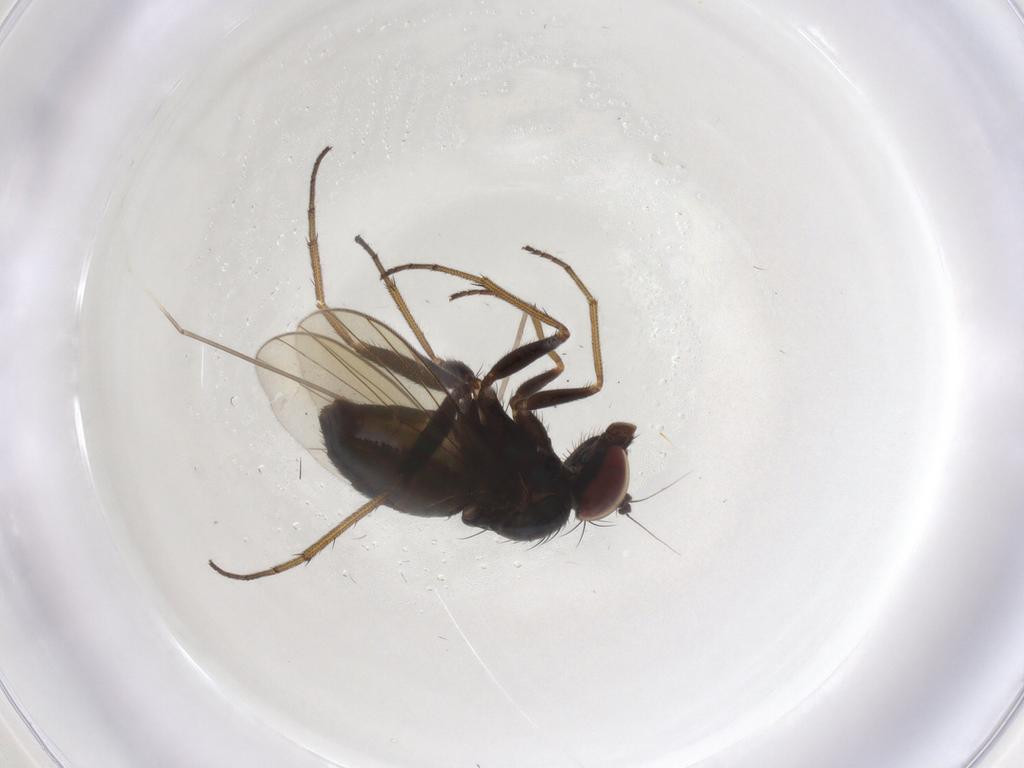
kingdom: Animalia
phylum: Arthropoda
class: Insecta
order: Diptera
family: Dolichopodidae
